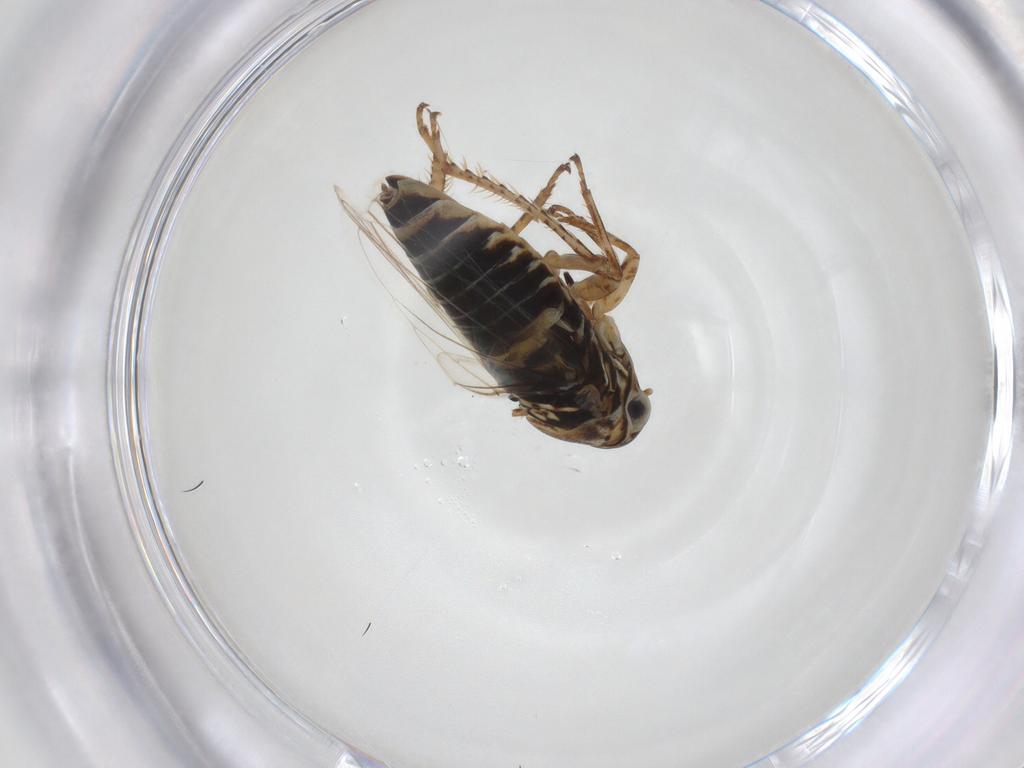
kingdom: Animalia
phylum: Arthropoda
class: Insecta
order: Hemiptera
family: Cicadellidae
